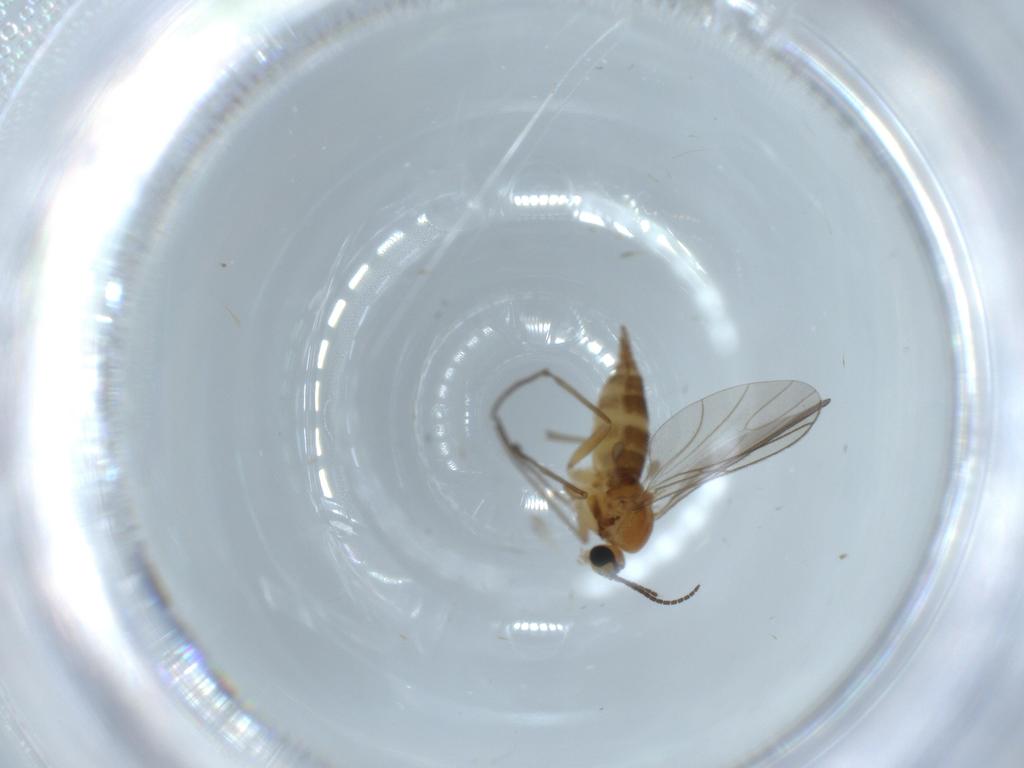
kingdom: Animalia
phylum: Arthropoda
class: Insecta
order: Diptera
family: Sciaridae
